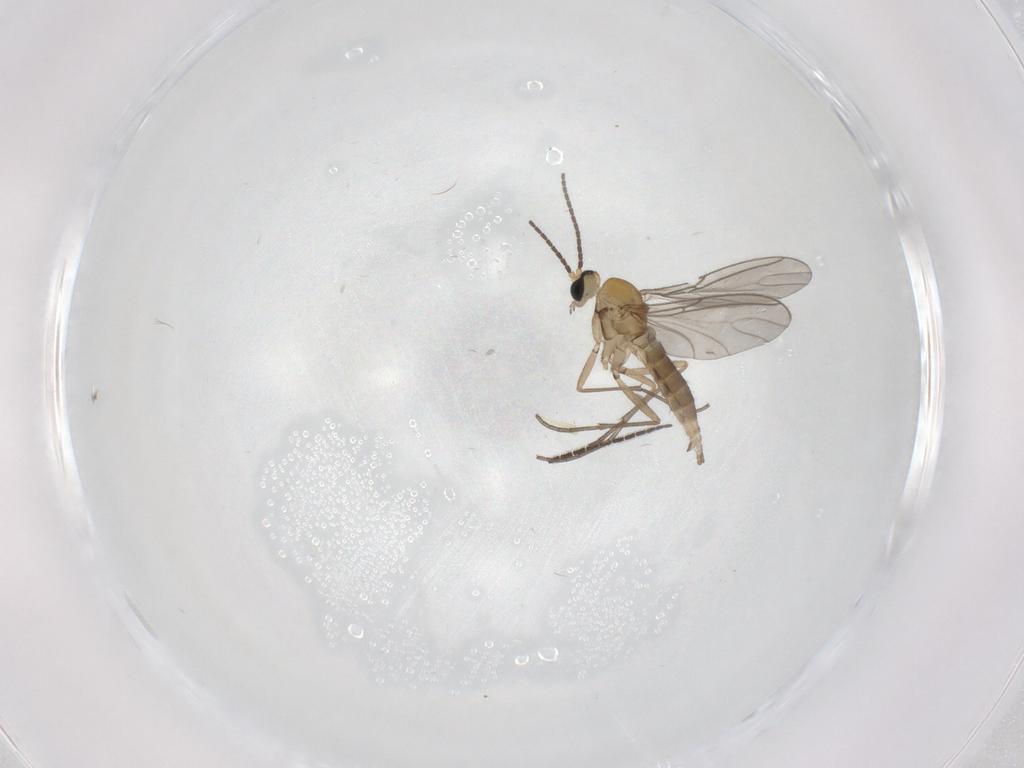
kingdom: Animalia
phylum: Arthropoda
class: Insecta
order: Diptera
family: Sciaridae
